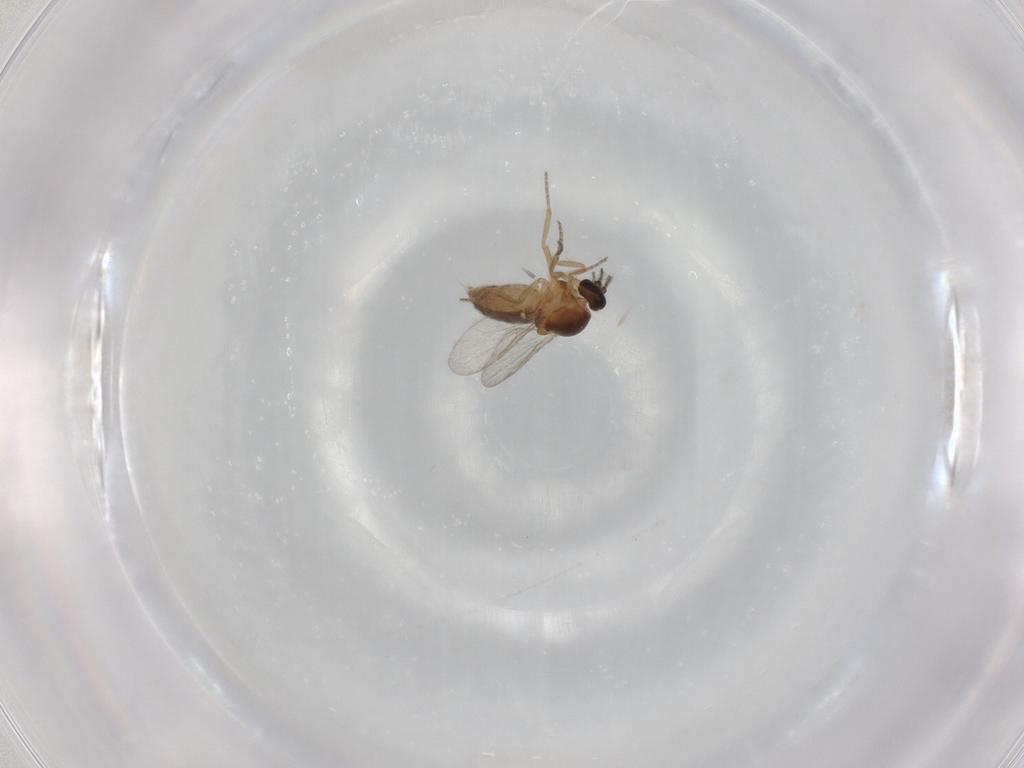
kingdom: Animalia
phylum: Arthropoda
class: Insecta
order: Diptera
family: Ceratopogonidae
